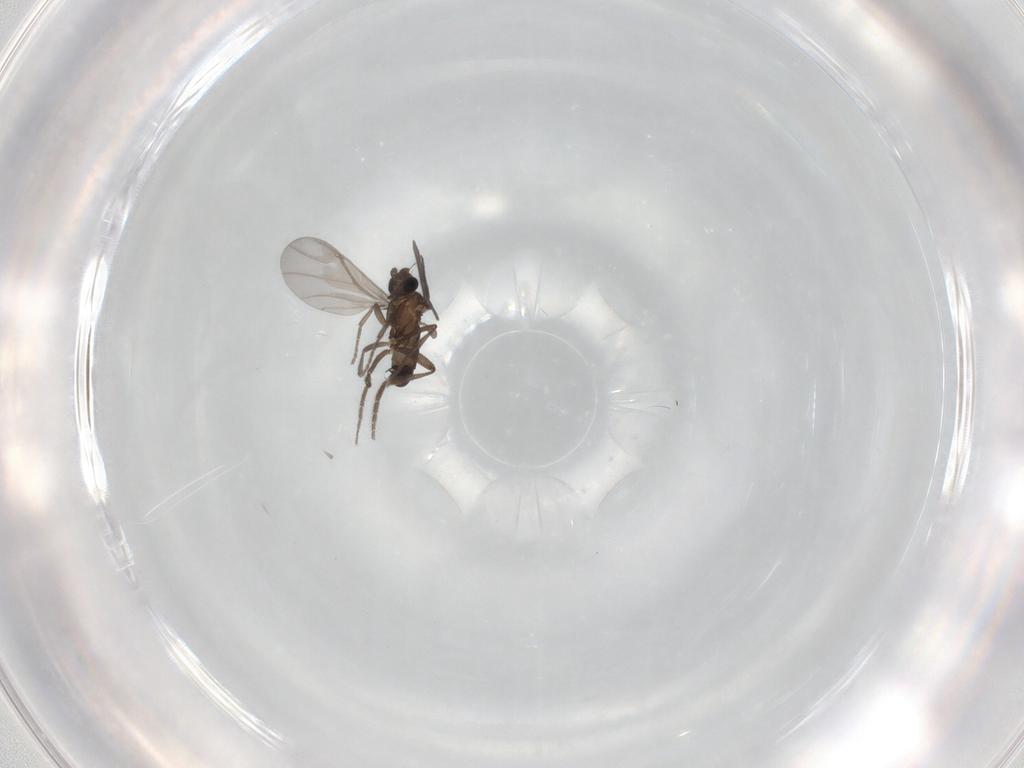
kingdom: Animalia
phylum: Arthropoda
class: Insecta
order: Diptera
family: Phoridae
